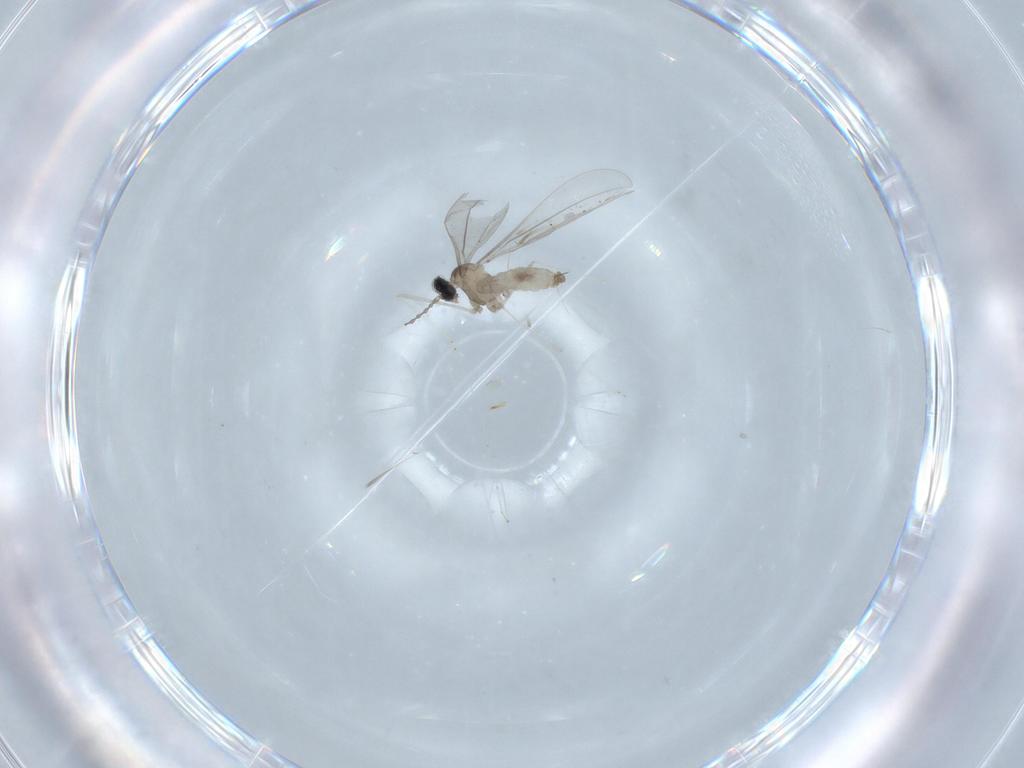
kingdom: Animalia
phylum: Arthropoda
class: Insecta
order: Diptera
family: Cecidomyiidae
